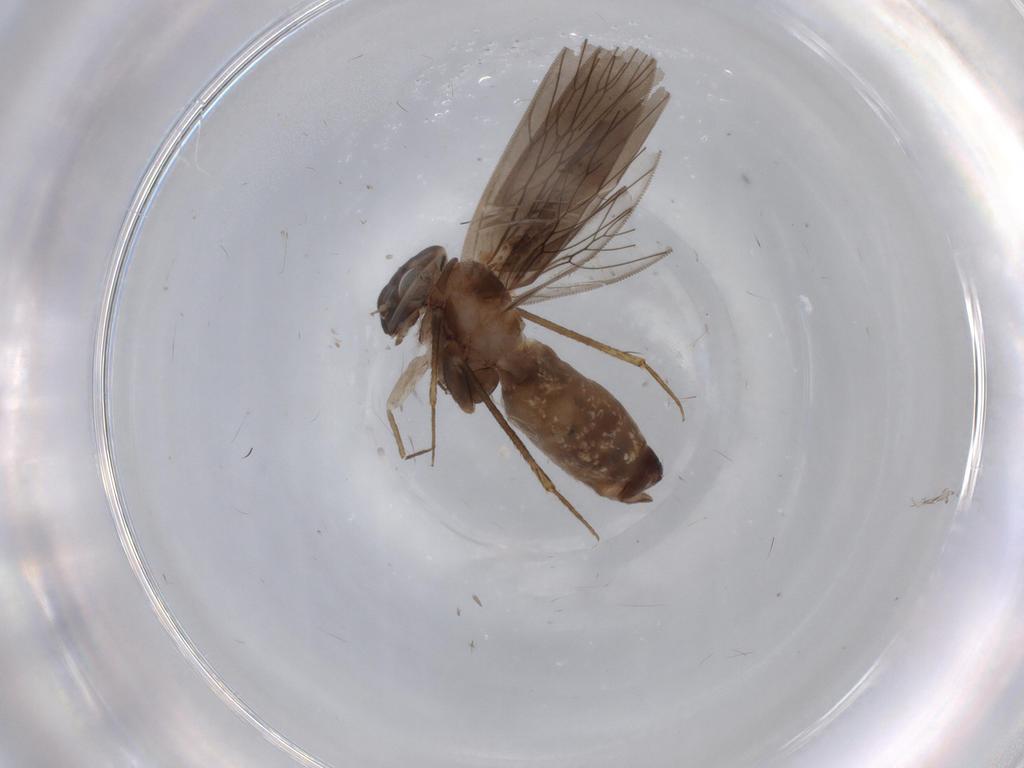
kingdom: Animalia
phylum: Arthropoda
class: Insecta
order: Psocodea
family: Lepidopsocidae
